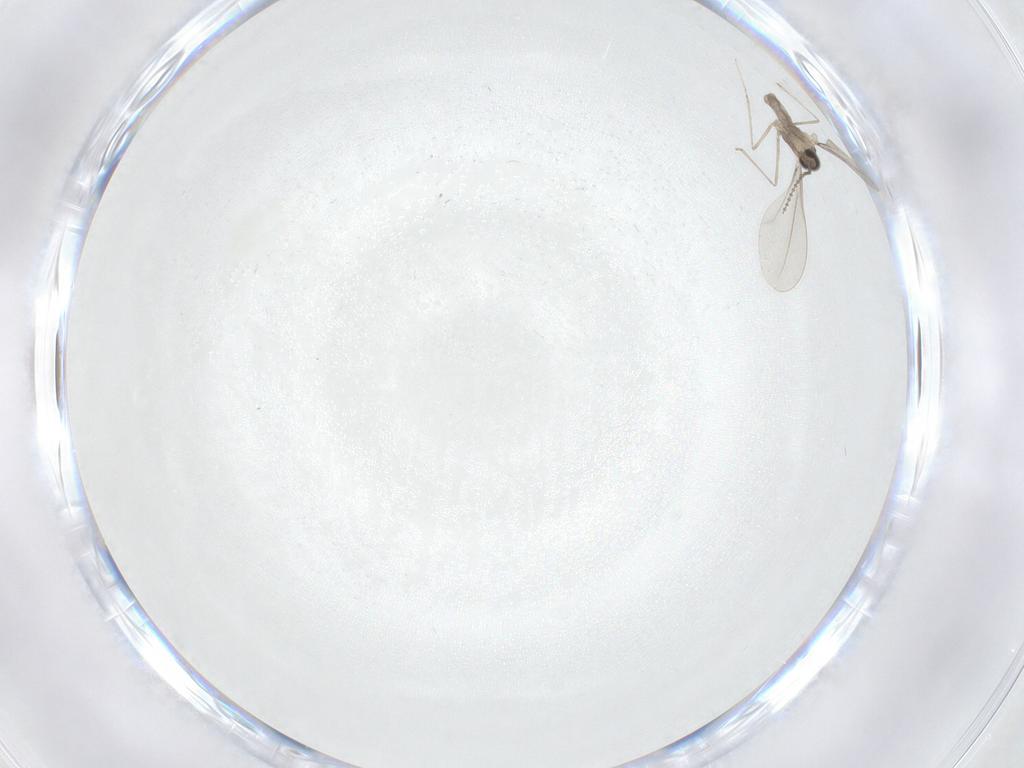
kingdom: Animalia
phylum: Arthropoda
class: Insecta
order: Diptera
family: Cecidomyiidae
